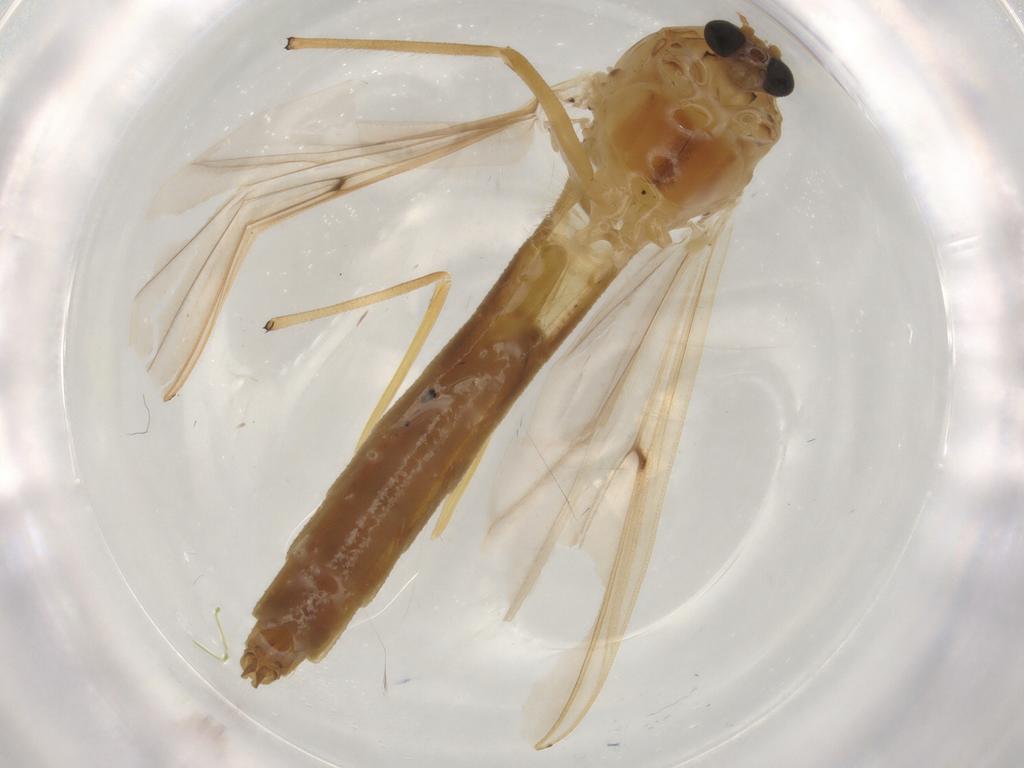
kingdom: Animalia
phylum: Arthropoda
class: Insecta
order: Diptera
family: Chironomidae
